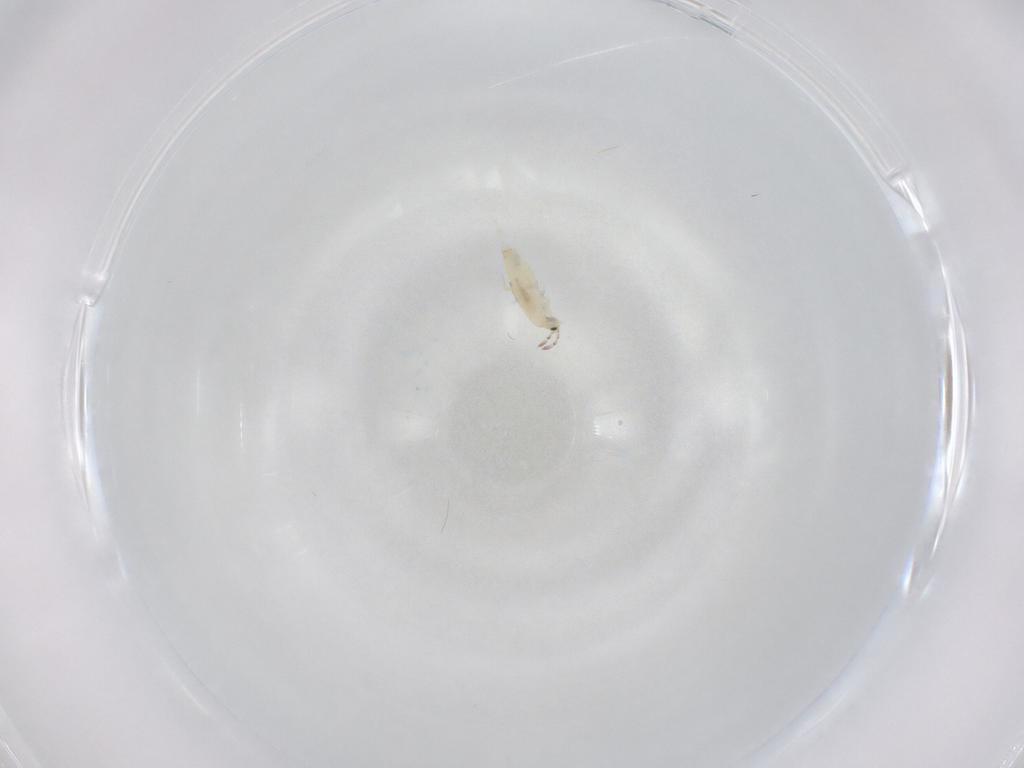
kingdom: Animalia
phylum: Arthropoda
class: Collembola
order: Entomobryomorpha
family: Entomobryidae
